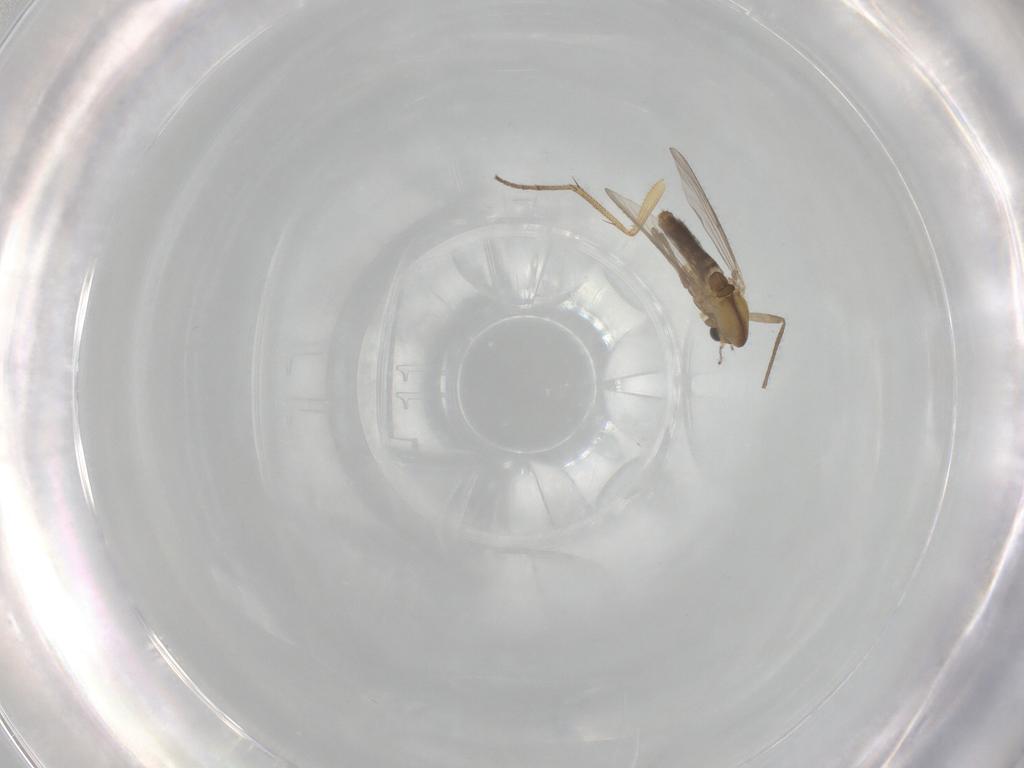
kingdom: Animalia
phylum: Arthropoda
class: Insecta
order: Diptera
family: Chironomidae
